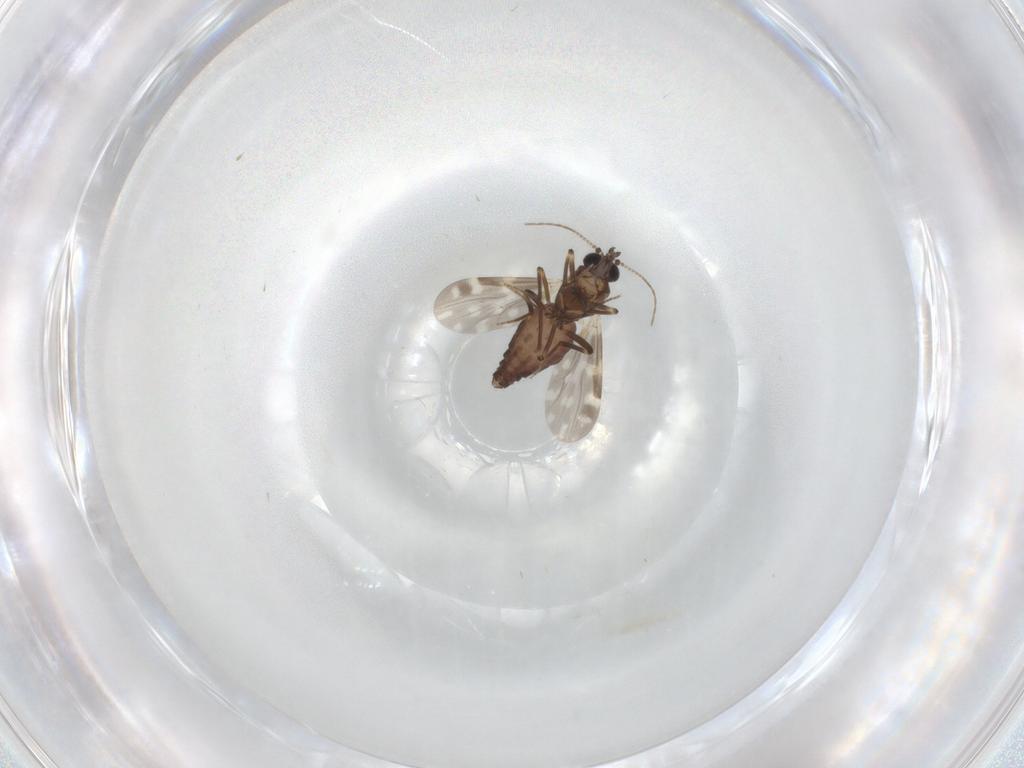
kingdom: Animalia
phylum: Arthropoda
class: Insecta
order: Diptera
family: Ceratopogonidae
